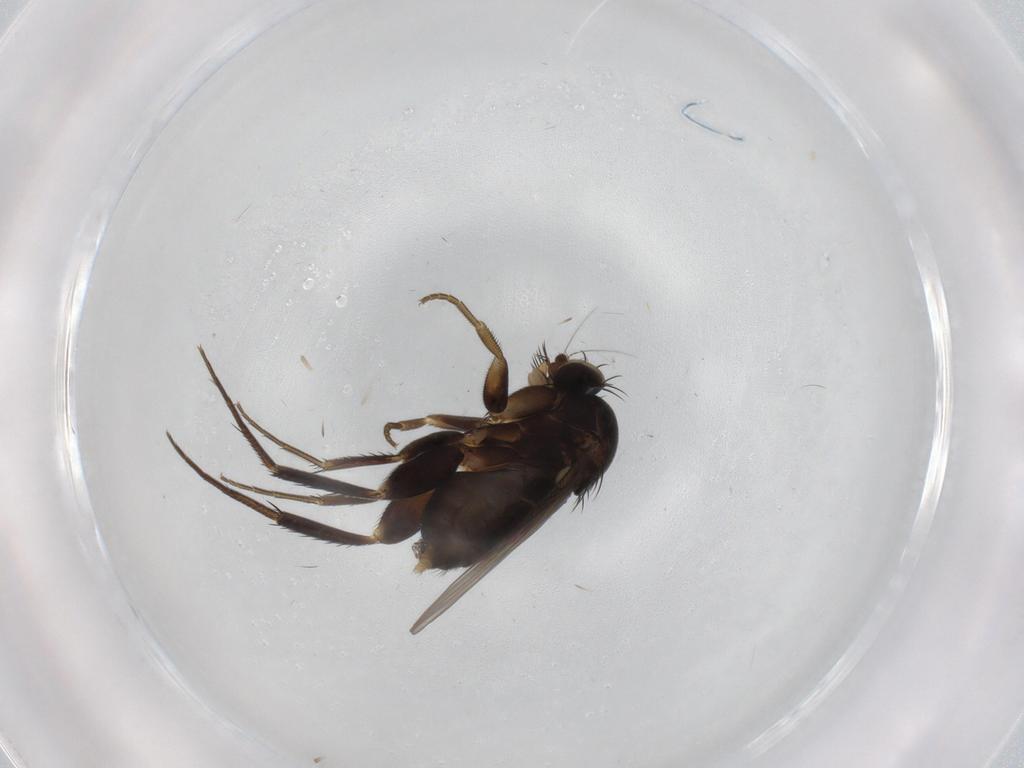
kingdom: Animalia
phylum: Arthropoda
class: Insecta
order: Diptera
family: Phoridae
